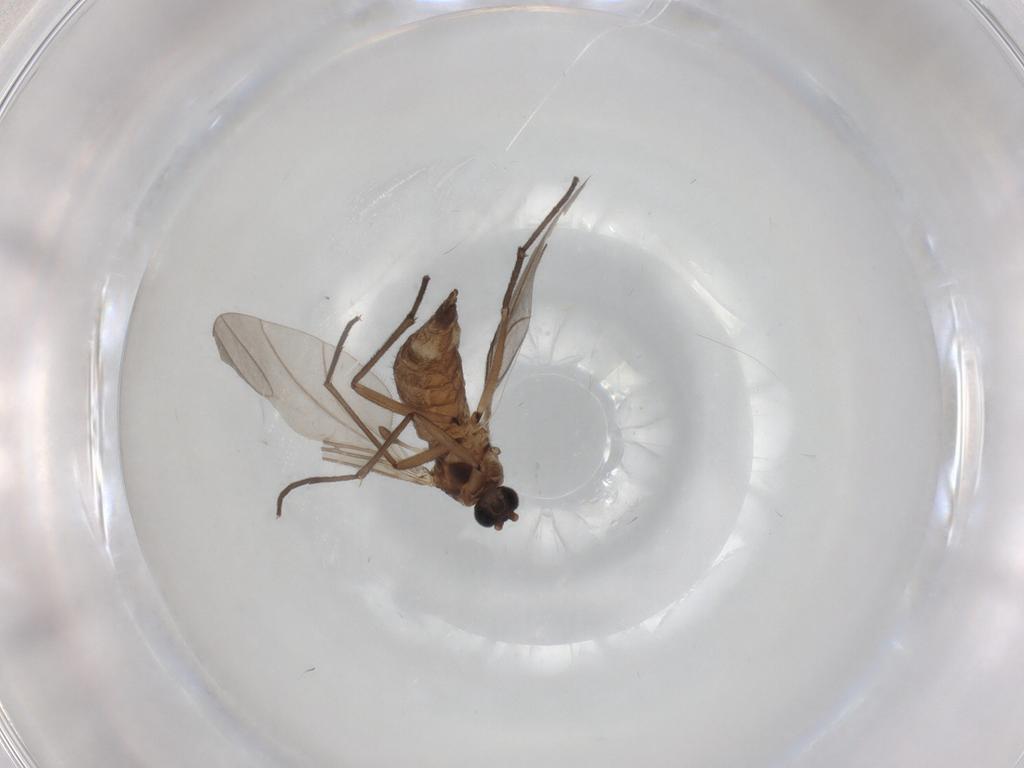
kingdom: Animalia
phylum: Arthropoda
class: Insecta
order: Diptera
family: Sciaridae
